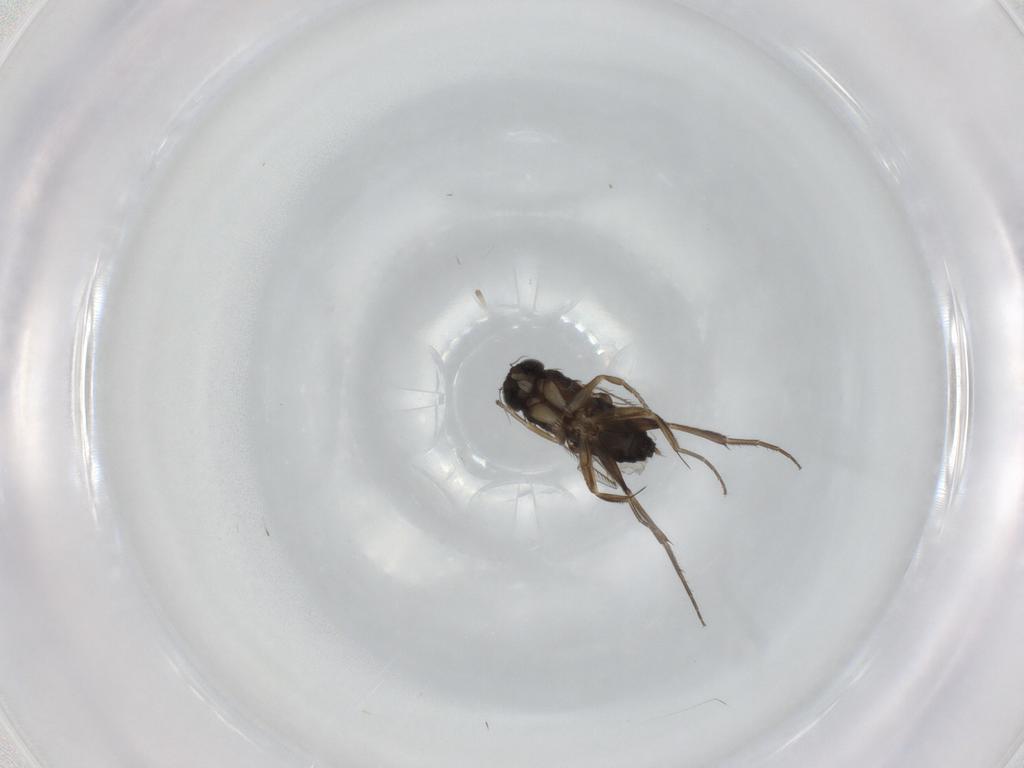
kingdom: Animalia
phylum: Arthropoda
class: Insecta
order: Diptera
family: Phoridae
